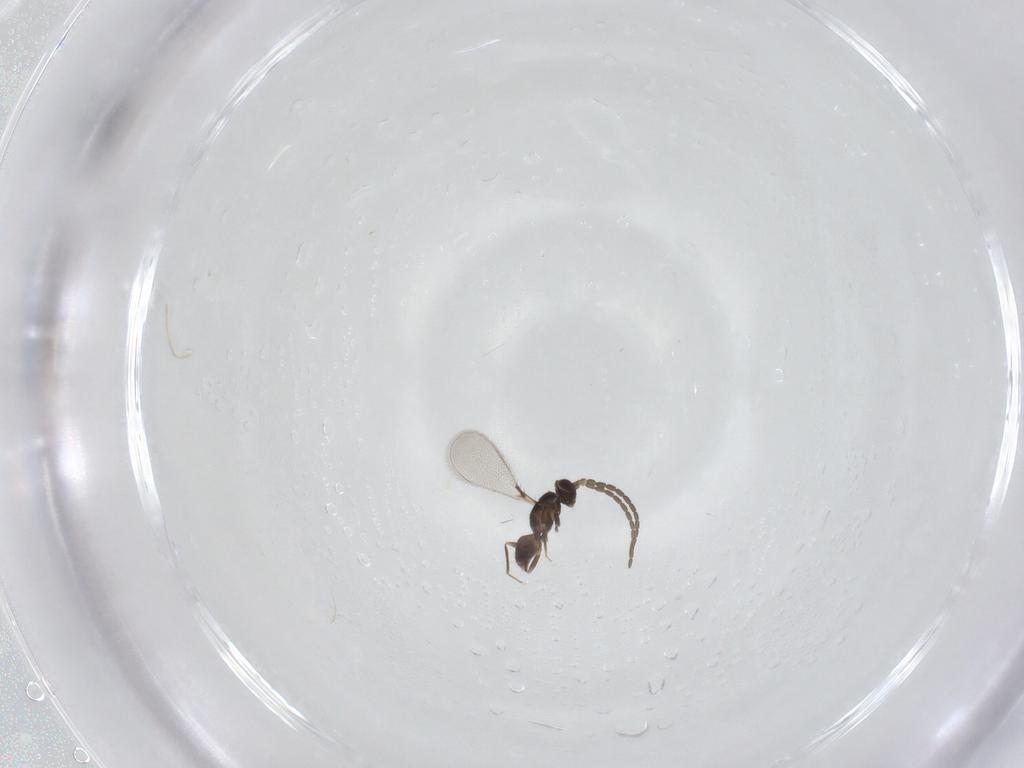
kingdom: Animalia
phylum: Arthropoda
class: Insecta
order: Hymenoptera
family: Mymaridae
